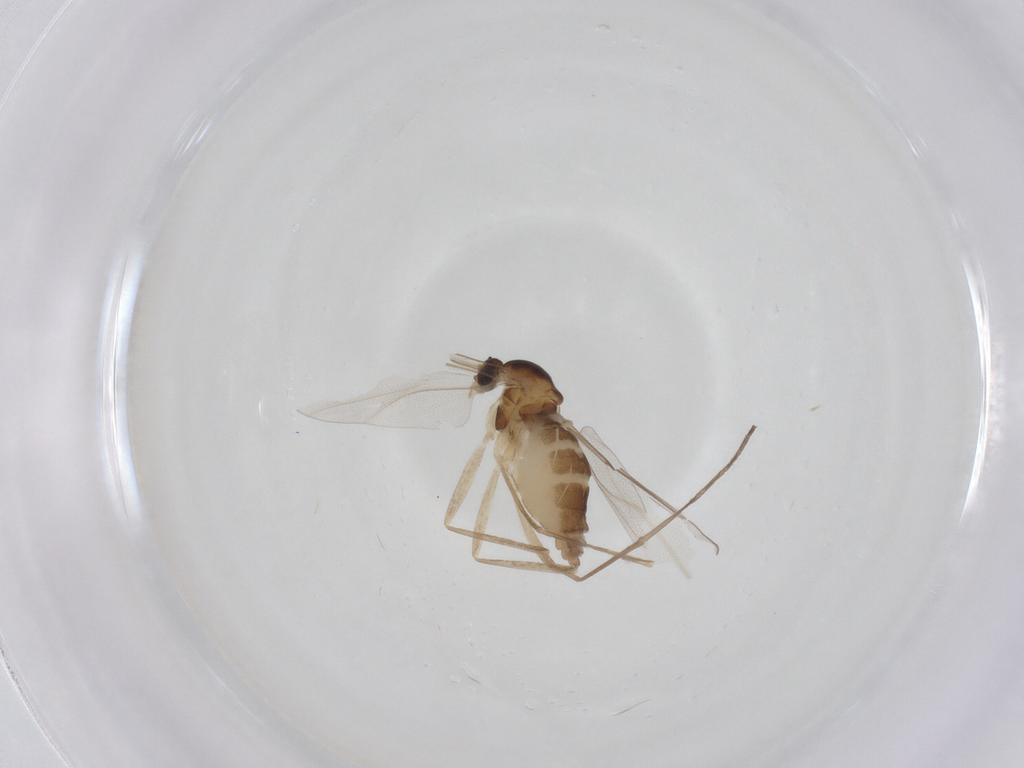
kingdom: Animalia
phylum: Arthropoda
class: Insecta
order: Diptera
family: Cecidomyiidae
